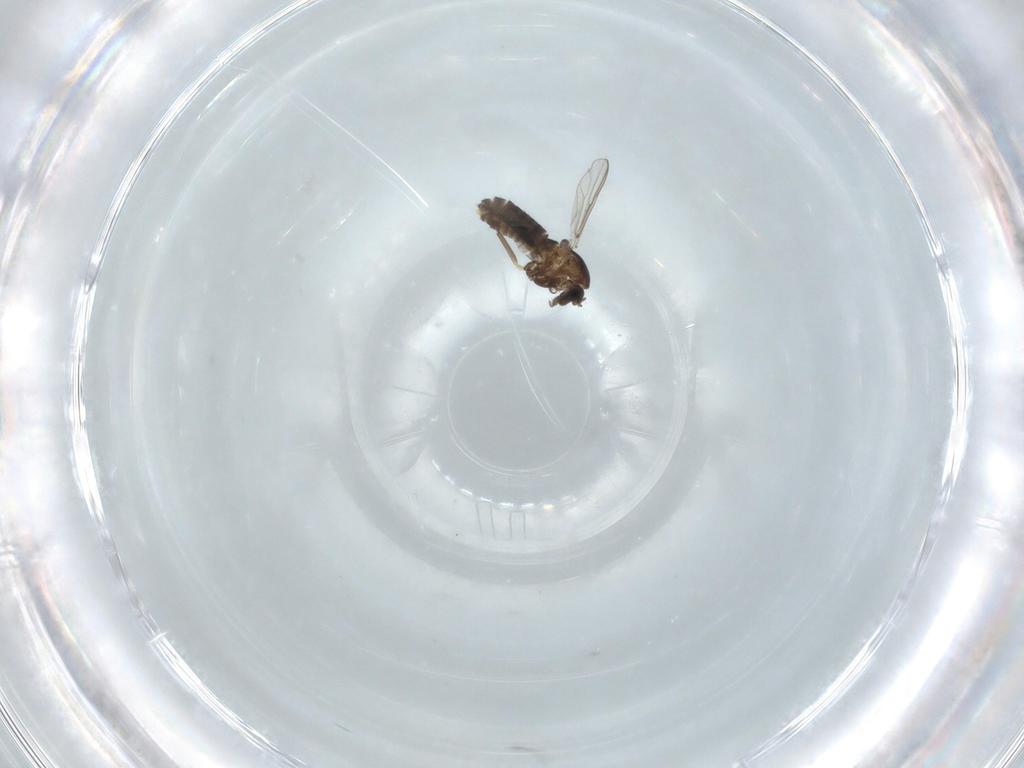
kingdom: Animalia
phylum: Arthropoda
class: Insecta
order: Diptera
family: Chironomidae
